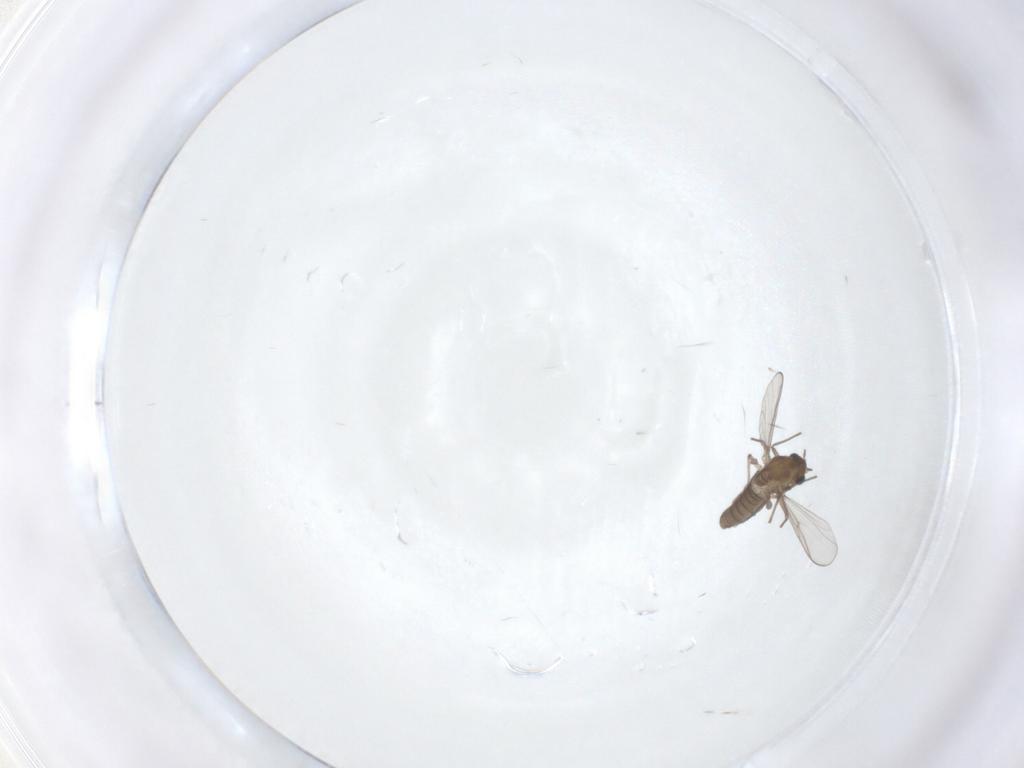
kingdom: Animalia
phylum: Arthropoda
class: Insecta
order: Diptera
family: Chironomidae
